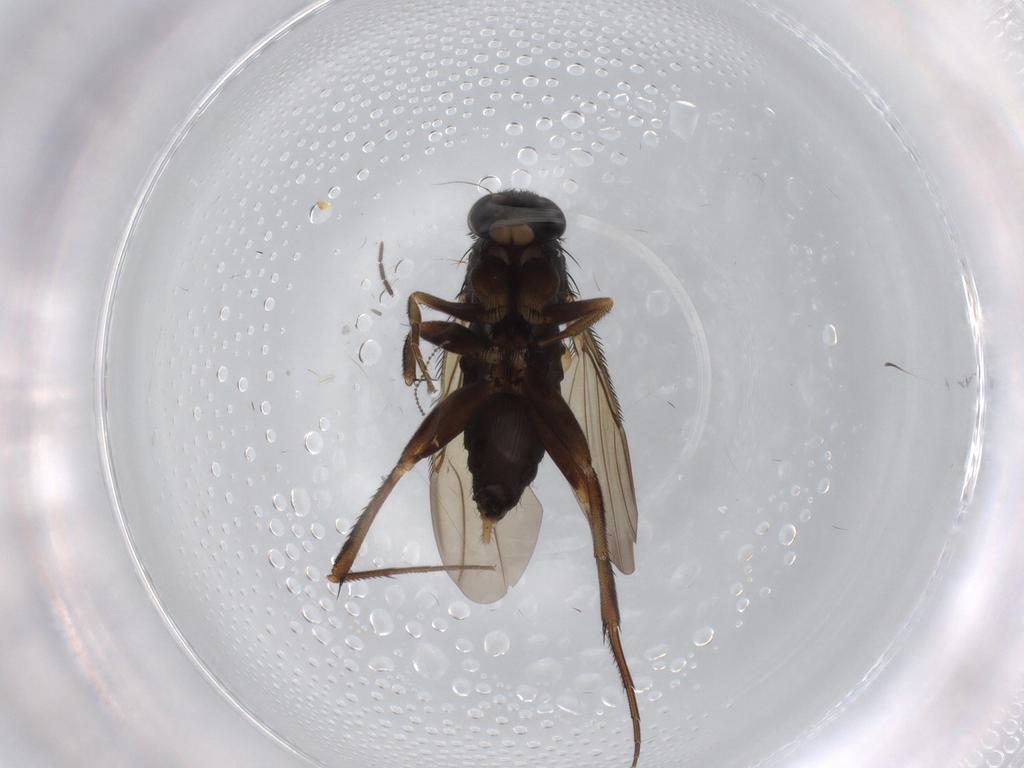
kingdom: Animalia
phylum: Arthropoda
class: Insecta
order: Diptera
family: Phoridae
